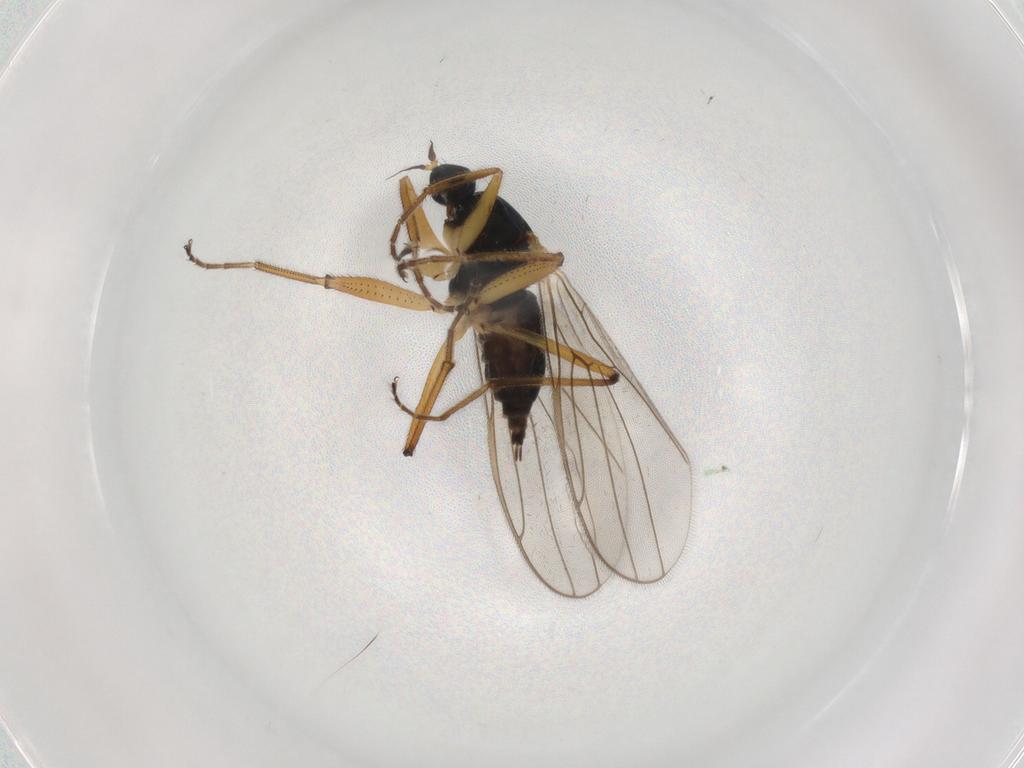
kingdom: Animalia
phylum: Arthropoda
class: Insecta
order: Diptera
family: Hybotidae
